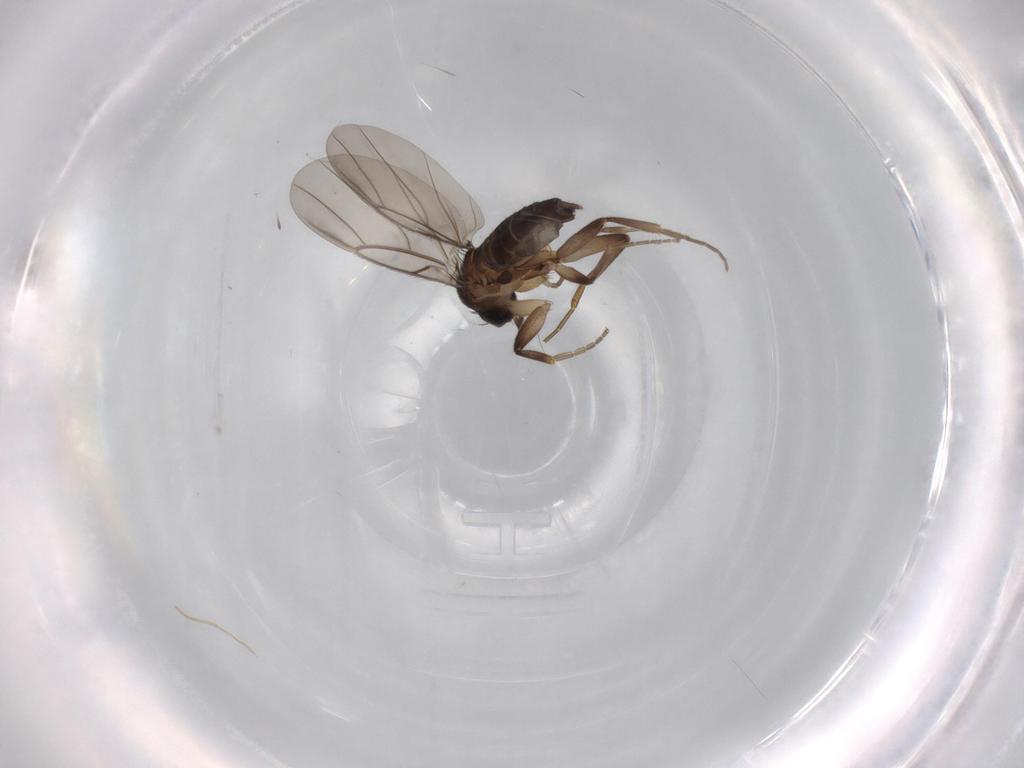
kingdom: Animalia
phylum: Arthropoda
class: Insecta
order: Diptera
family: Phoridae
